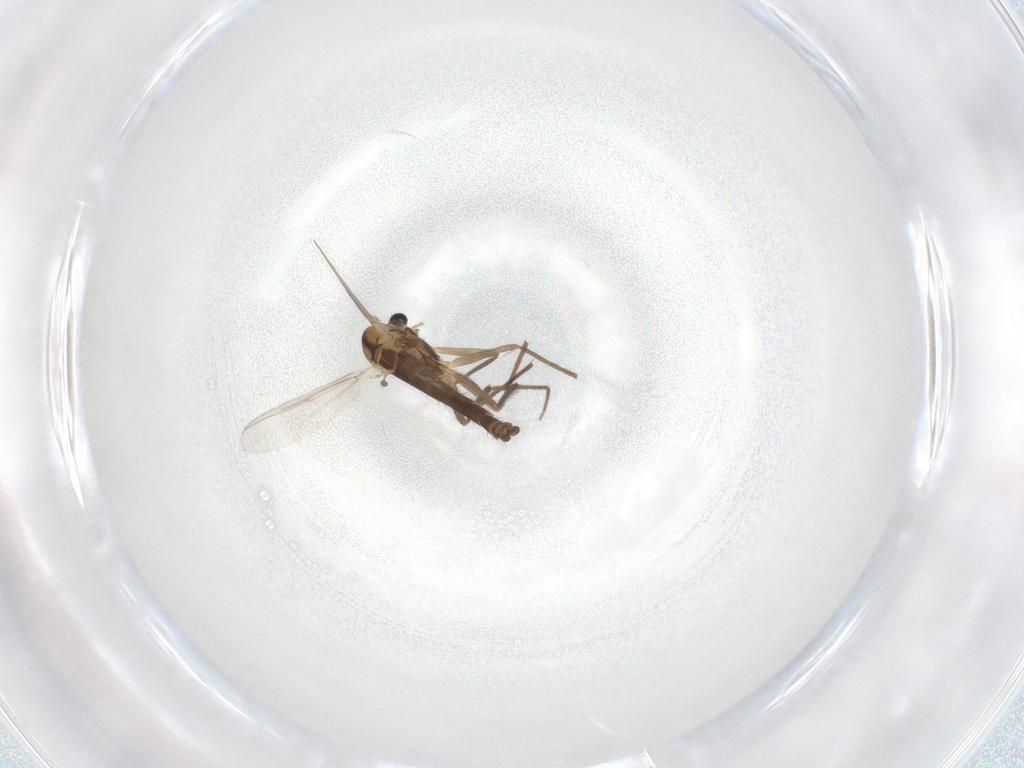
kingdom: Animalia
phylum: Arthropoda
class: Insecta
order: Diptera
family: Chironomidae
